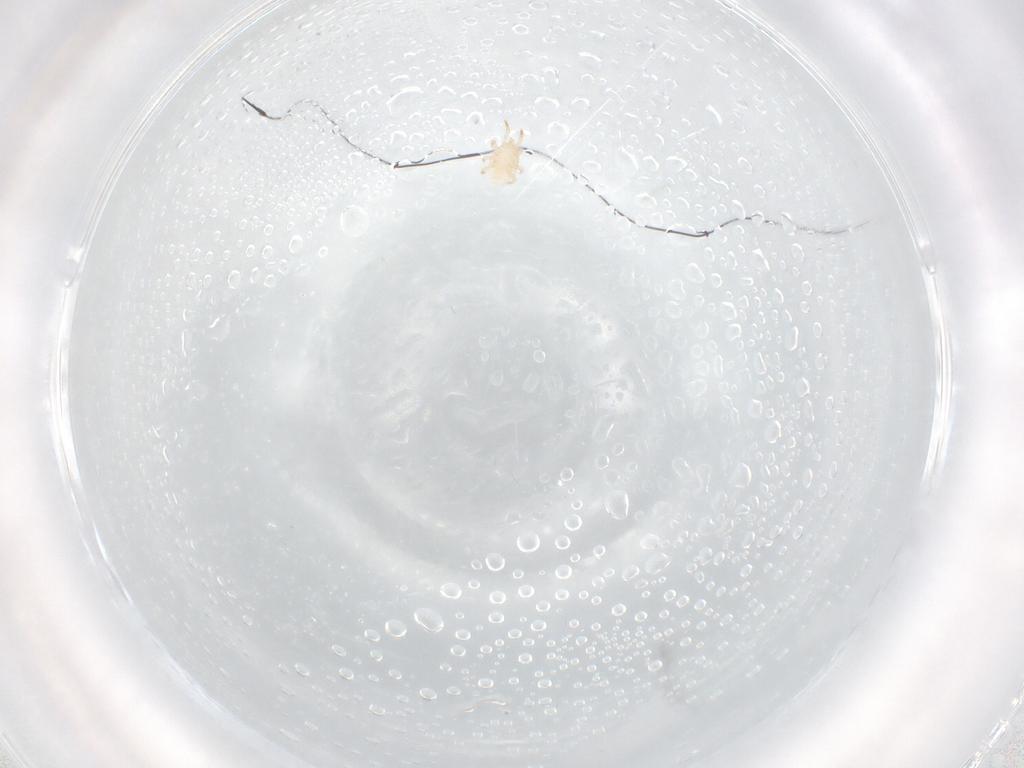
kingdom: Animalia
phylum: Arthropoda
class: Arachnida
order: Mesostigmata
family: Laelapidae
